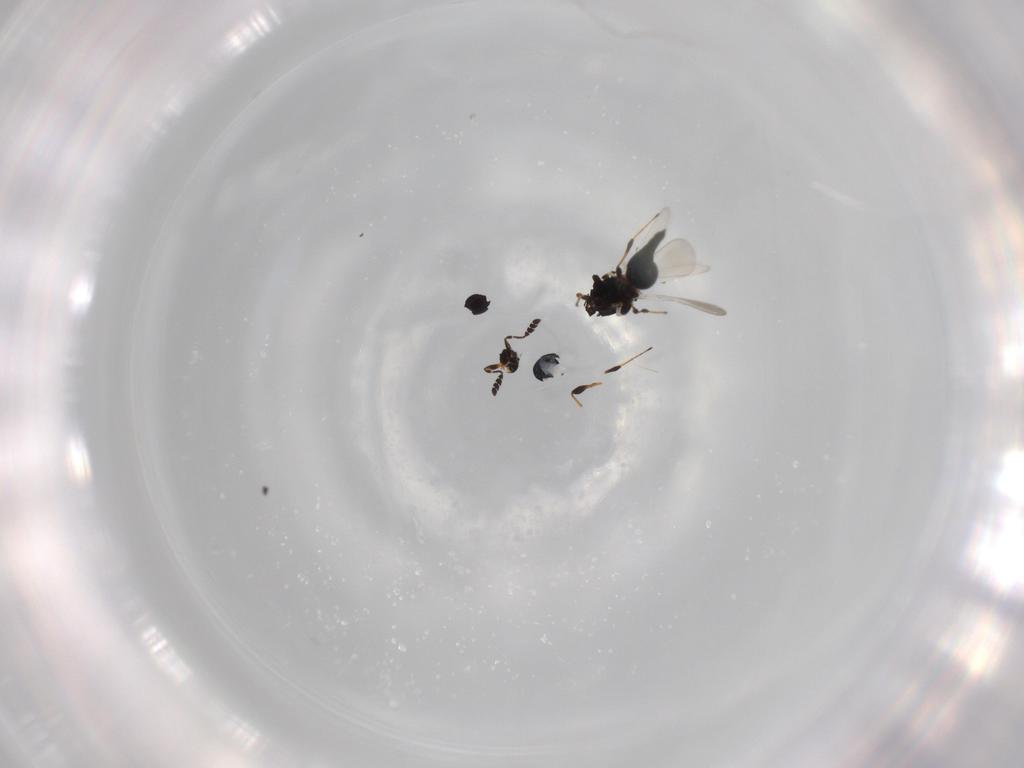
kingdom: Animalia
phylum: Arthropoda
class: Insecta
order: Hymenoptera
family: Platygastridae
